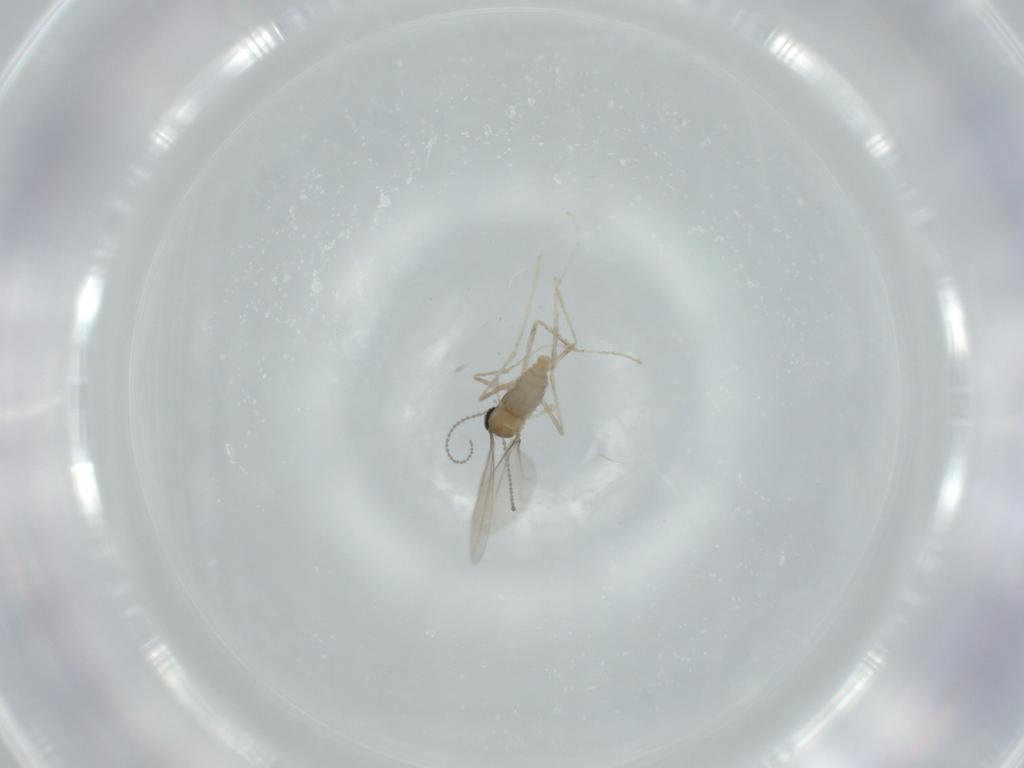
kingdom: Animalia
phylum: Arthropoda
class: Insecta
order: Diptera
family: Cecidomyiidae
